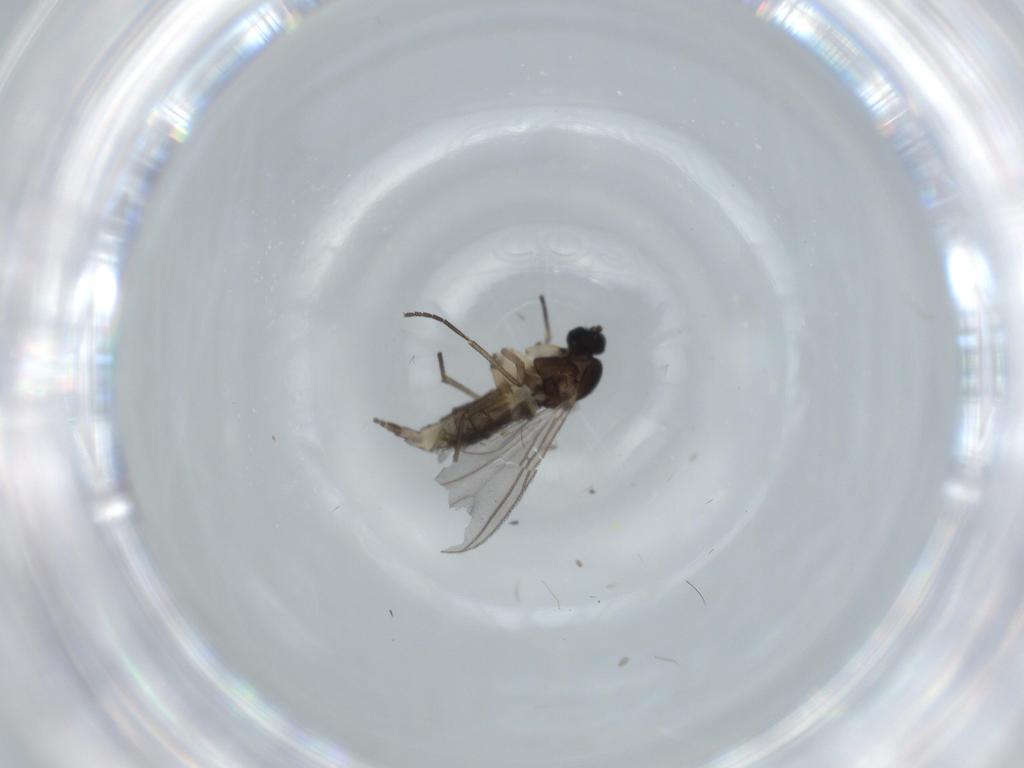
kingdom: Animalia
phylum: Arthropoda
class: Insecta
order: Diptera
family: Sciaridae
